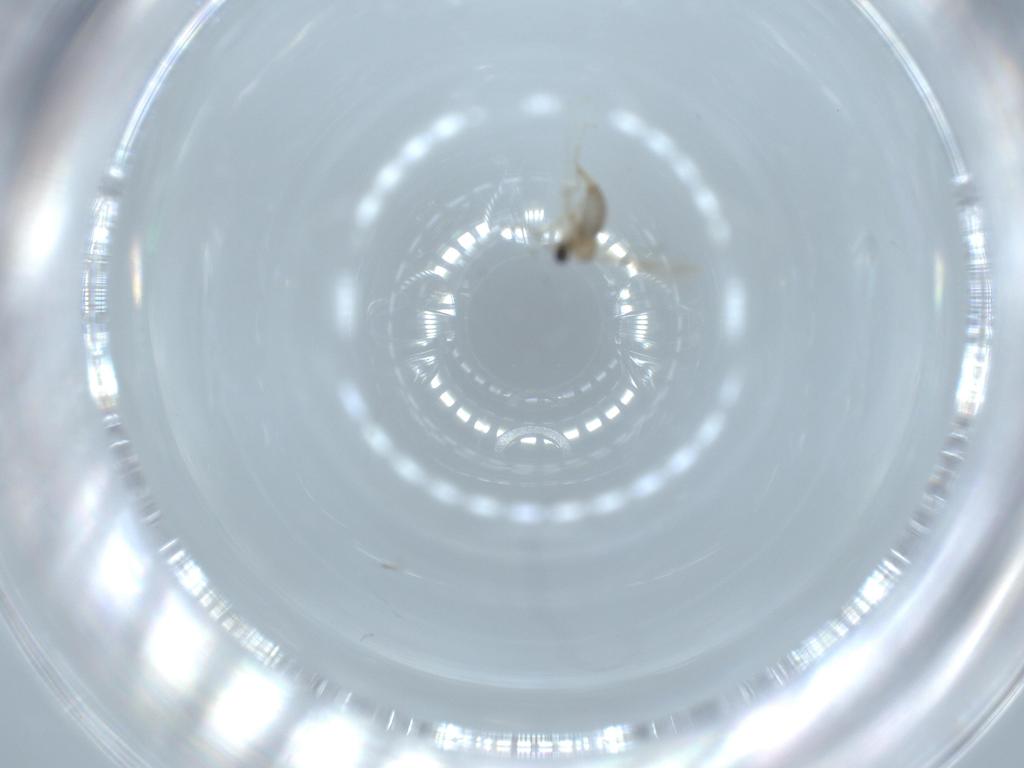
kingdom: Animalia
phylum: Arthropoda
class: Insecta
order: Diptera
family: Cecidomyiidae
